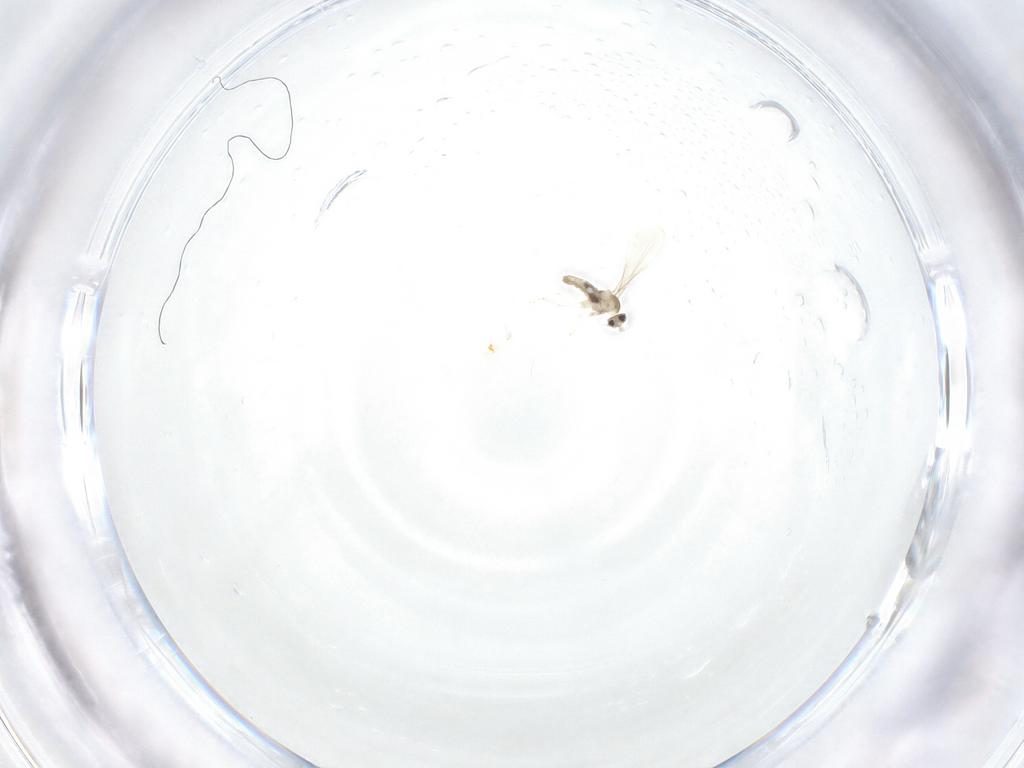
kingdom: Animalia
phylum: Arthropoda
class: Insecta
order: Diptera
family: Cecidomyiidae
